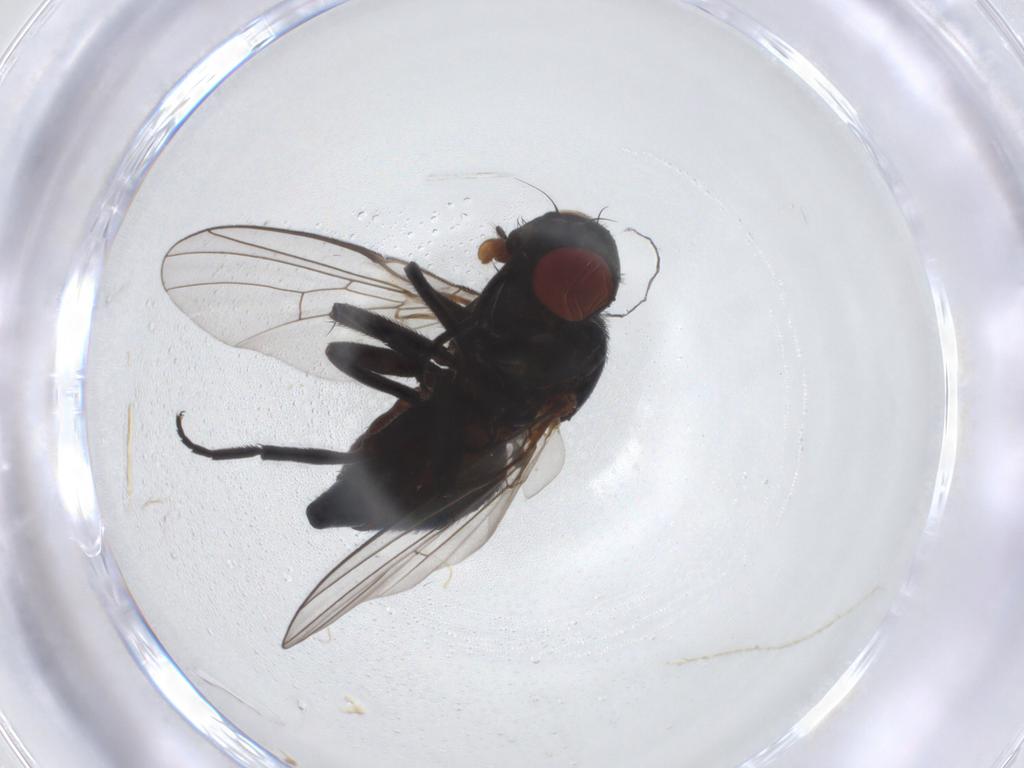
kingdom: Animalia
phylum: Arthropoda
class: Insecta
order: Diptera
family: Agromyzidae
